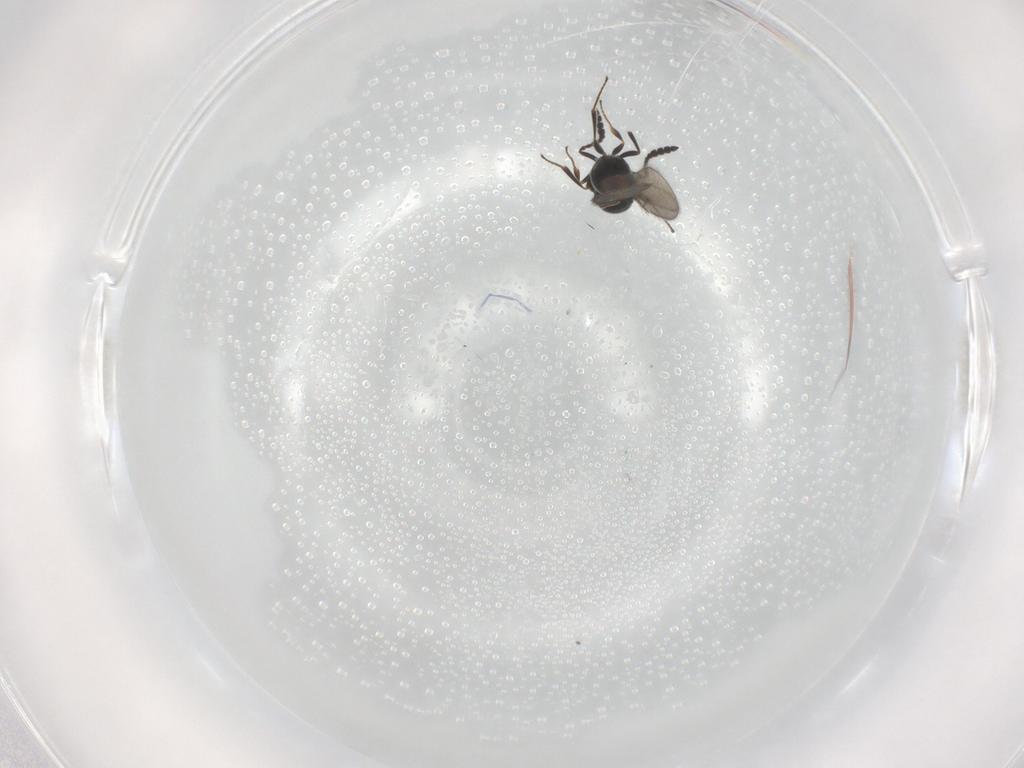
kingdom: Animalia
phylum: Arthropoda
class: Insecta
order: Hymenoptera
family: Scelionidae
